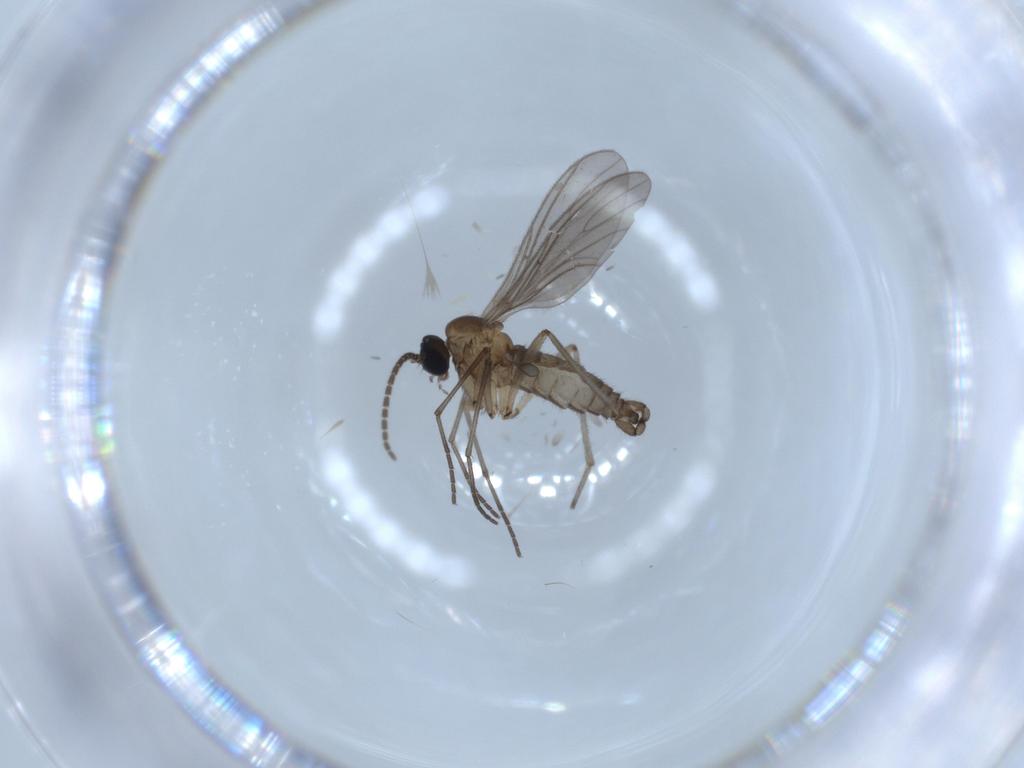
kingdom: Animalia
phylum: Arthropoda
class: Insecta
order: Diptera
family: Sciaridae
